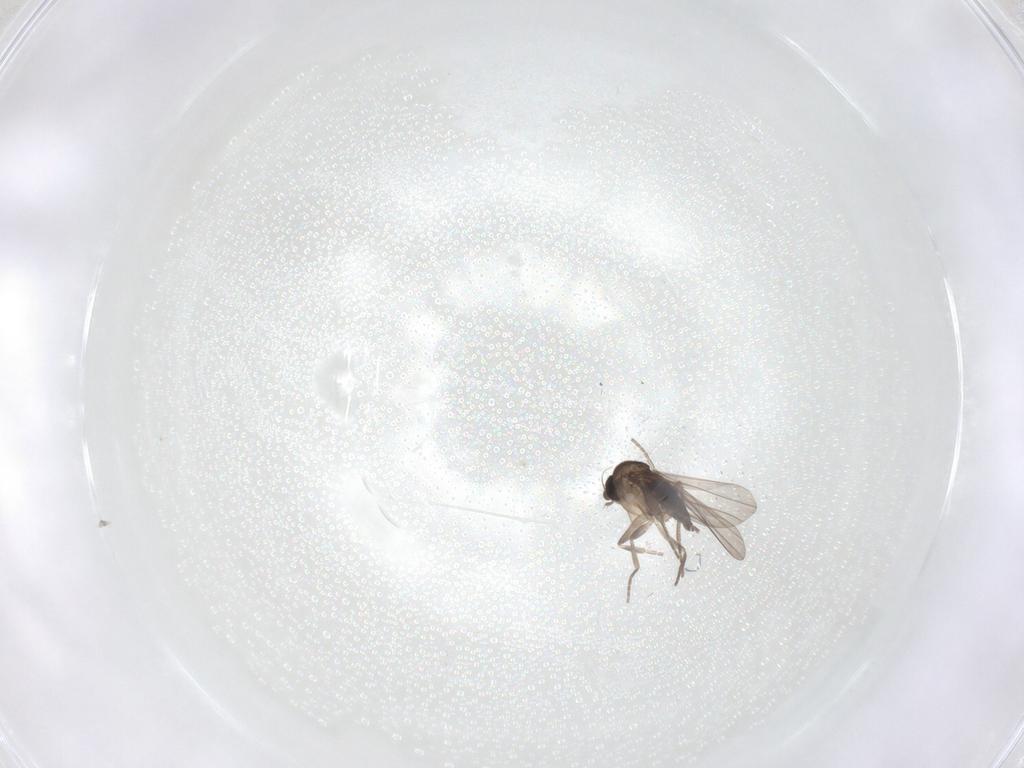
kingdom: Animalia
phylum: Arthropoda
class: Insecta
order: Diptera
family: Phoridae
